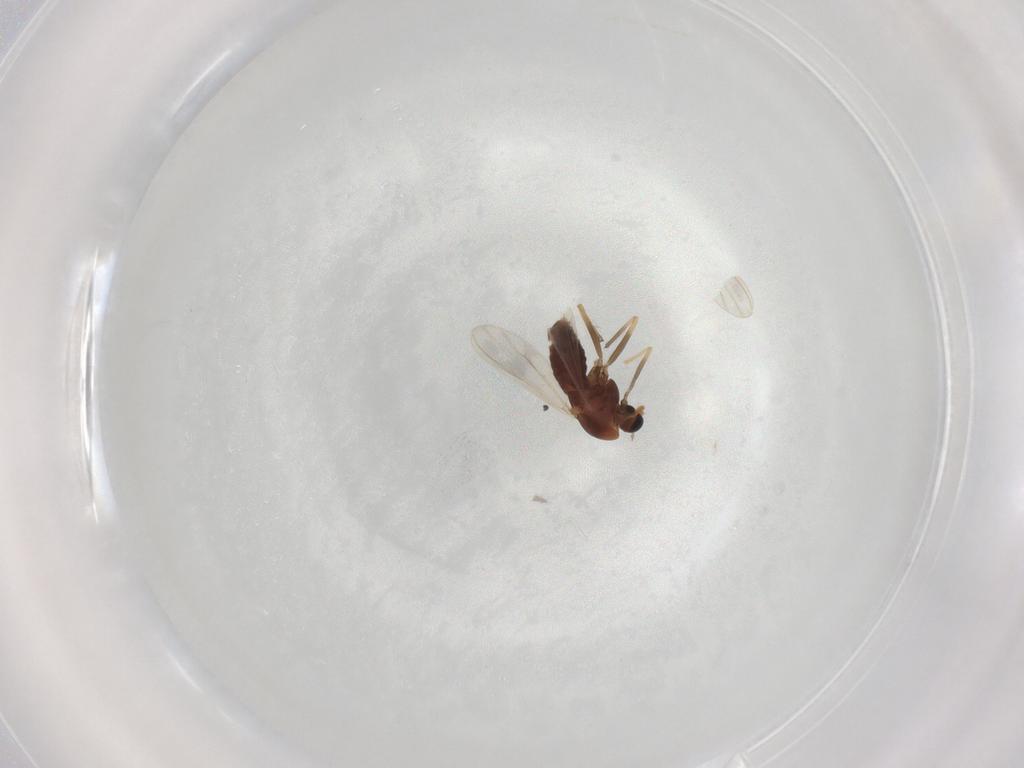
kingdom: Animalia
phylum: Arthropoda
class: Insecta
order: Diptera
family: Chironomidae
